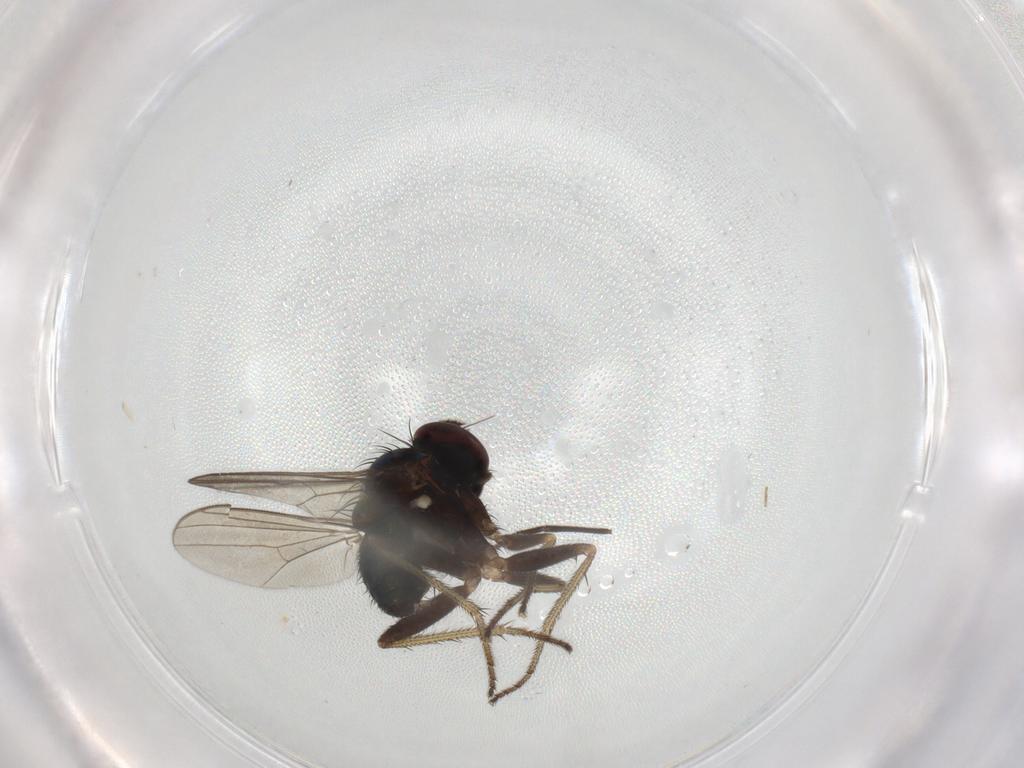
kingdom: Animalia
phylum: Arthropoda
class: Insecta
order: Diptera
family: Dolichopodidae
